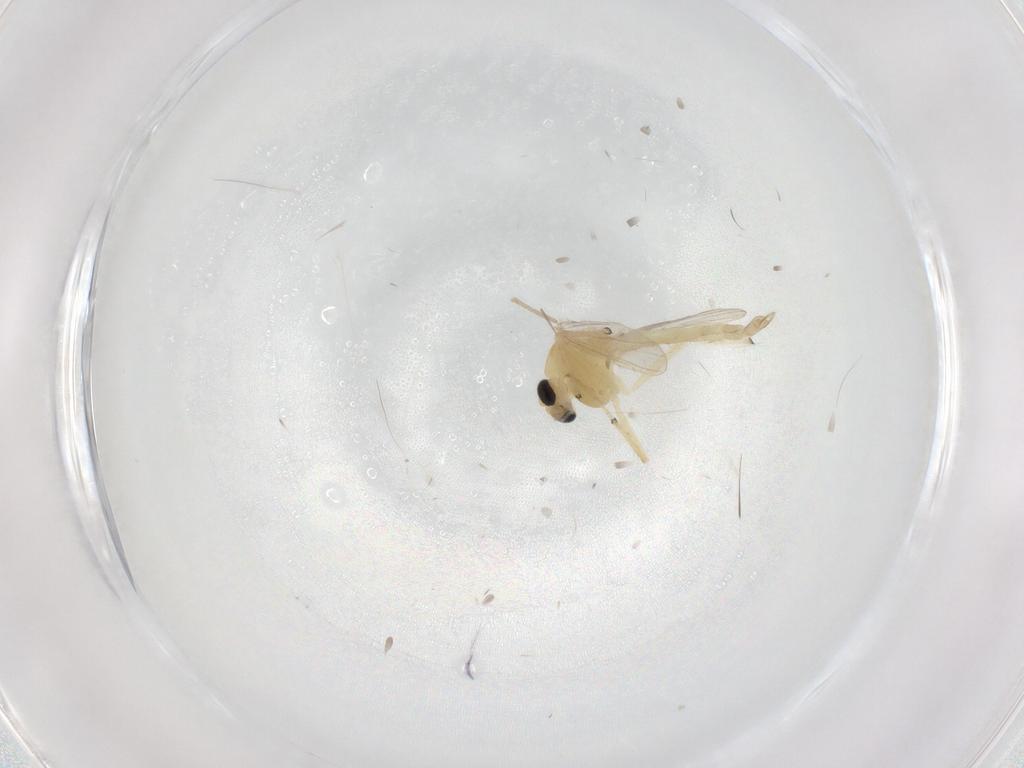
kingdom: Animalia
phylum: Arthropoda
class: Insecta
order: Diptera
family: Chironomidae
